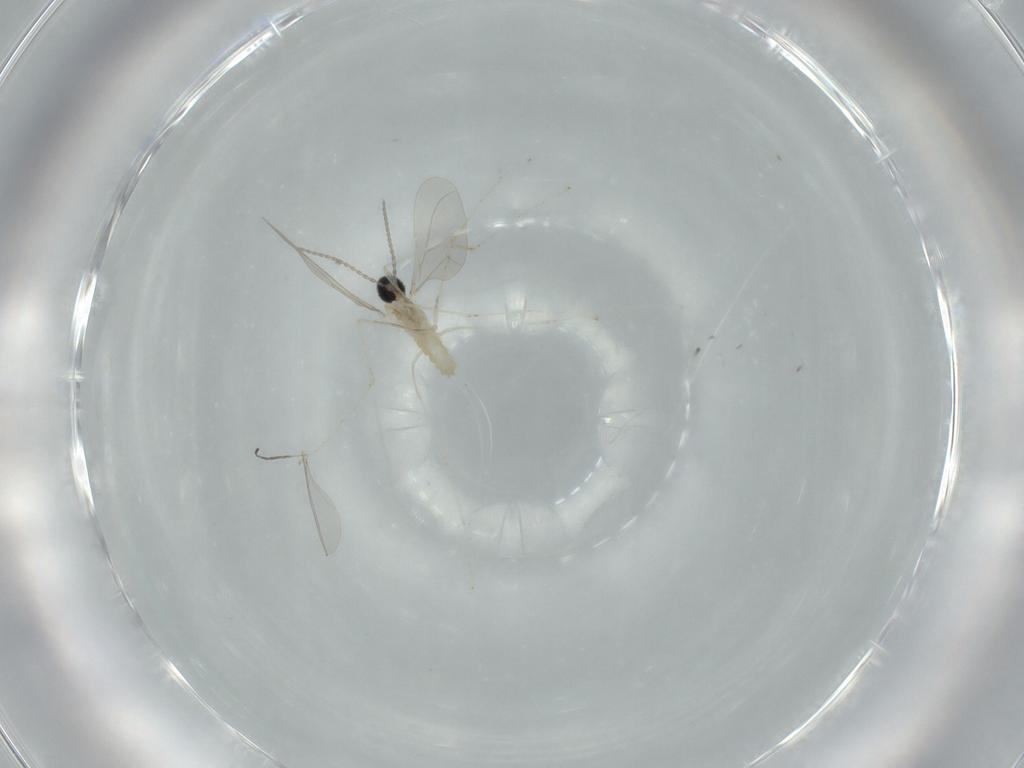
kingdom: Animalia
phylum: Arthropoda
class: Insecta
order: Diptera
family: Cecidomyiidae
